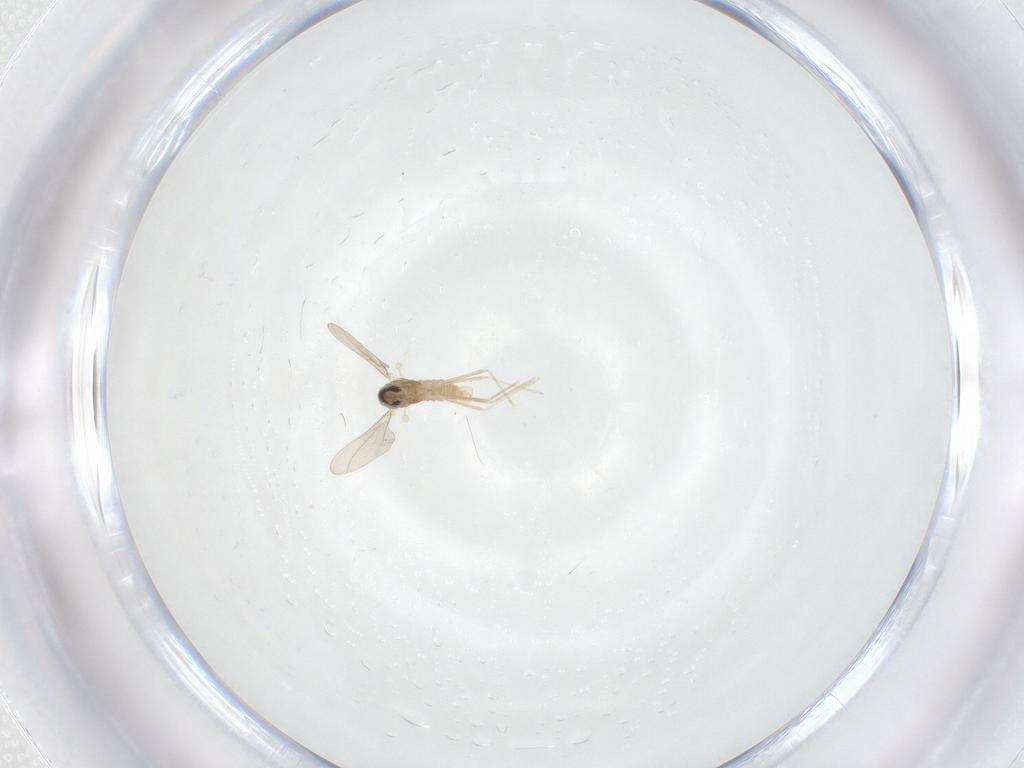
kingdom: Animalia
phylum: Arthropoda
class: Insecta
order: Diptera
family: Cecidomyiidae
